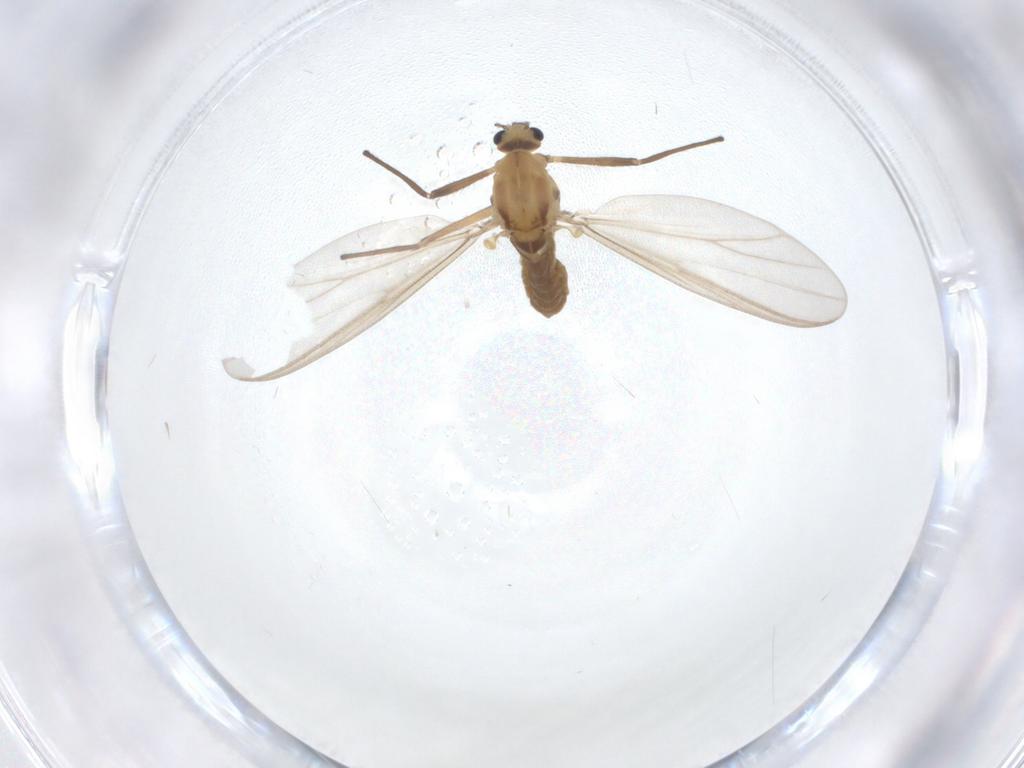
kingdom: Animalia
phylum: Arthropoda
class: Insecta
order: Diptera
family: Chironomidae
